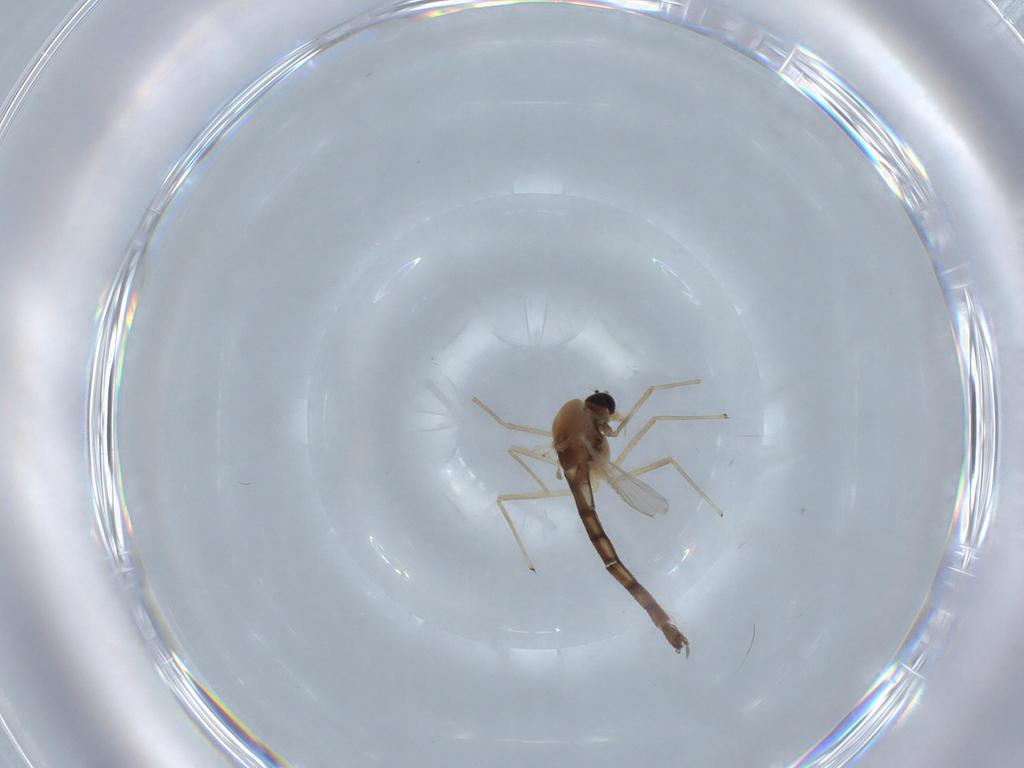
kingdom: Animalia
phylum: Arthropoda
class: Insecta
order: Diptera
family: Chironomidae
